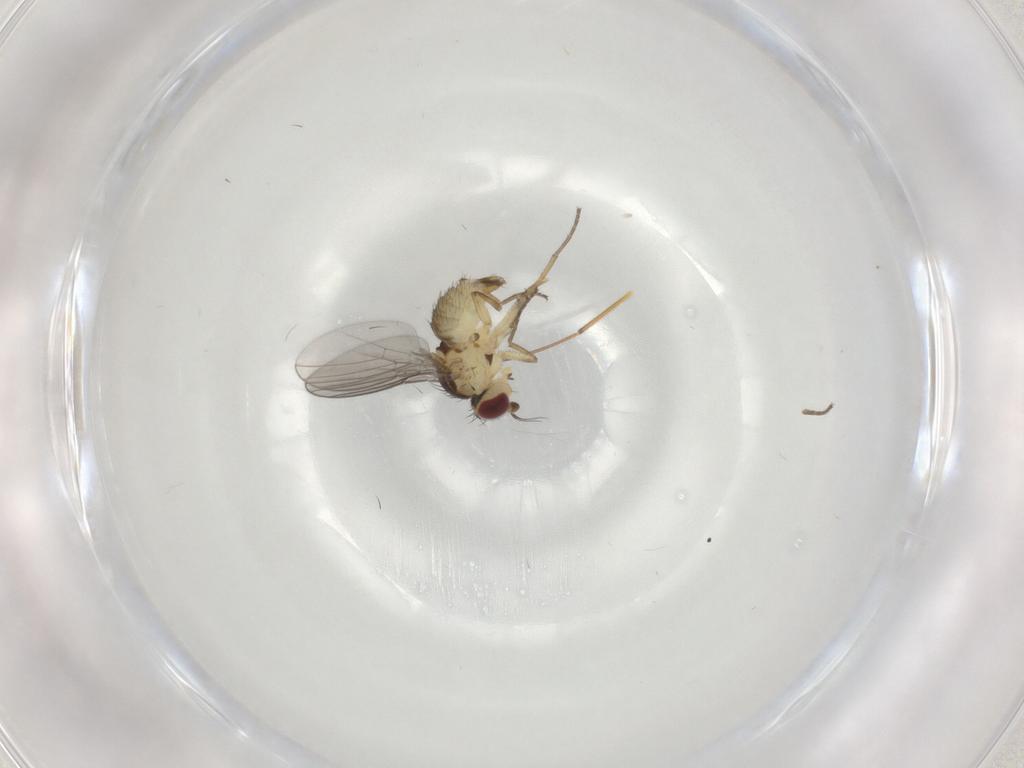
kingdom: Animalia
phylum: Arthropoda
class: Insecta
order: Diptera
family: Agromyzidae
